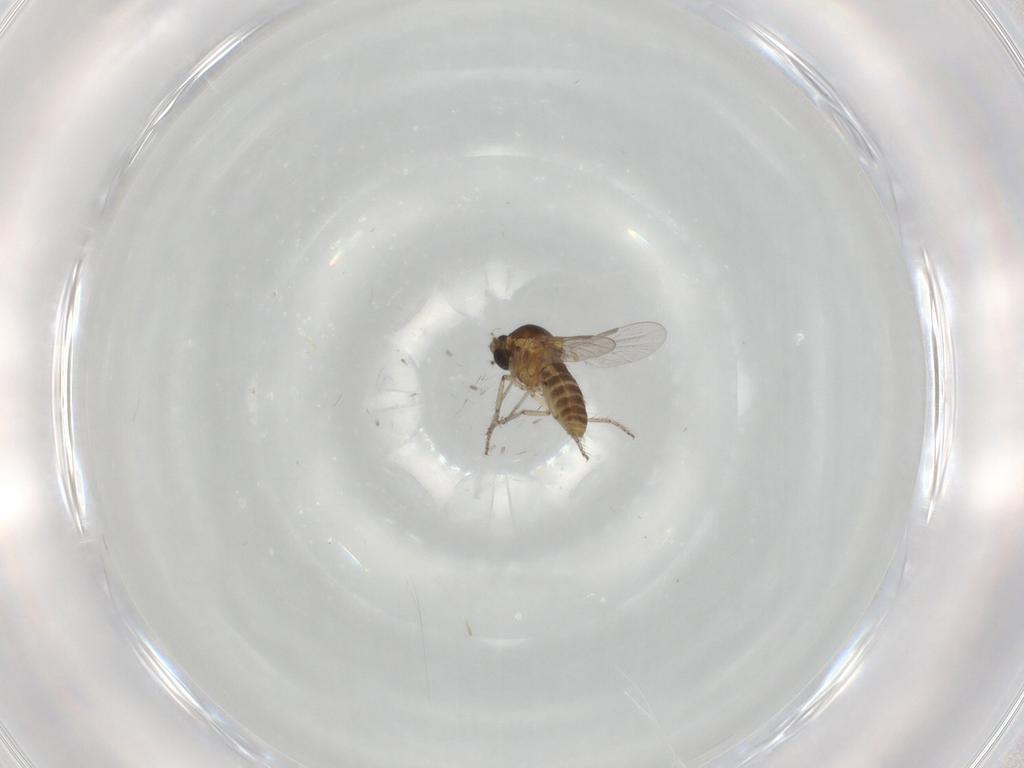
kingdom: Animalia
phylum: Arthropoda
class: Insecta
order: Diptera
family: Ceratopogonidae
